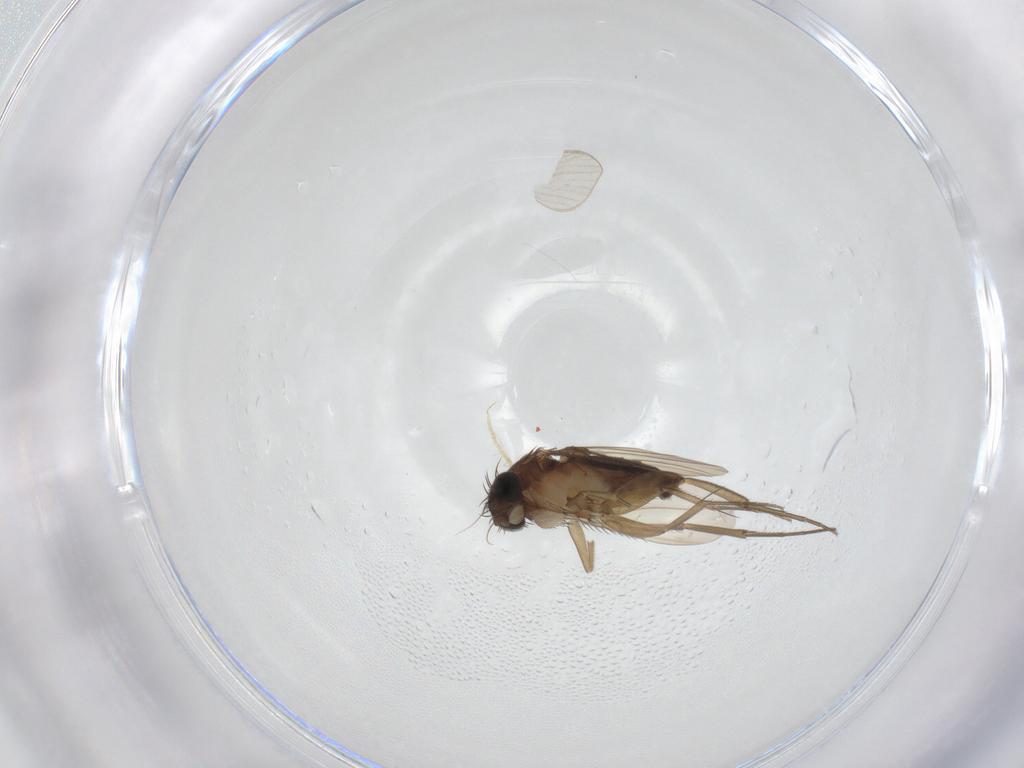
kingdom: Animalia
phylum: Arthropoda
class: Insecta
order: Diptera
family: Phoridae
